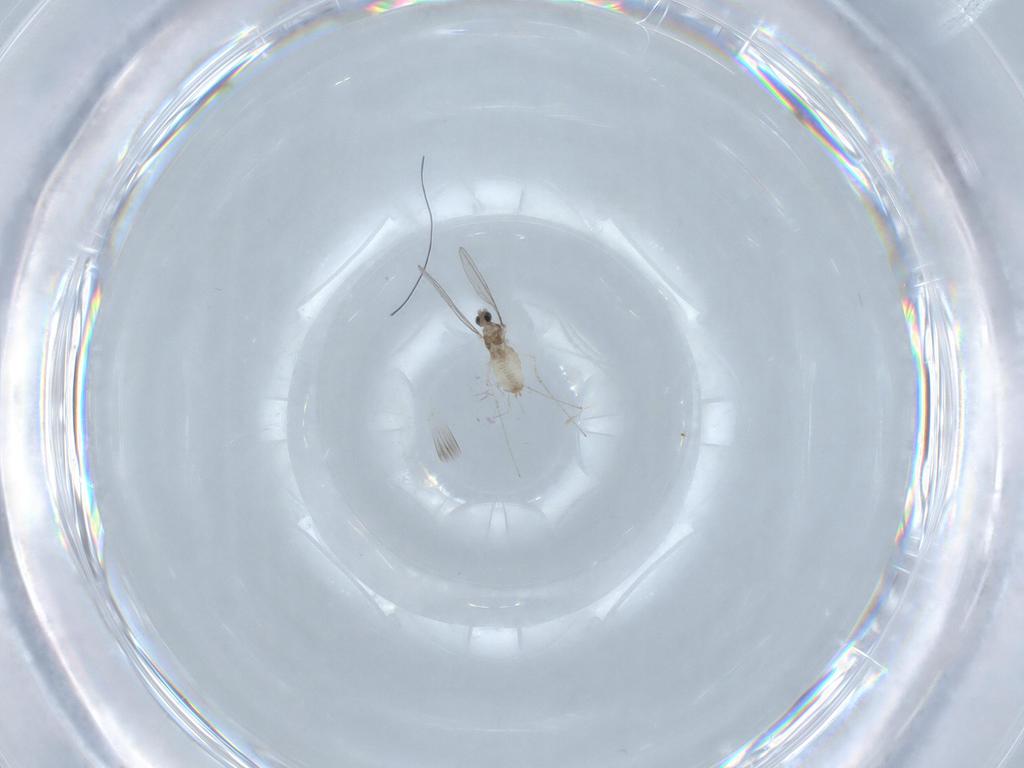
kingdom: Animalia
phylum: Arthropoda
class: Insecta
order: Diptera
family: Cecidomyiidae
